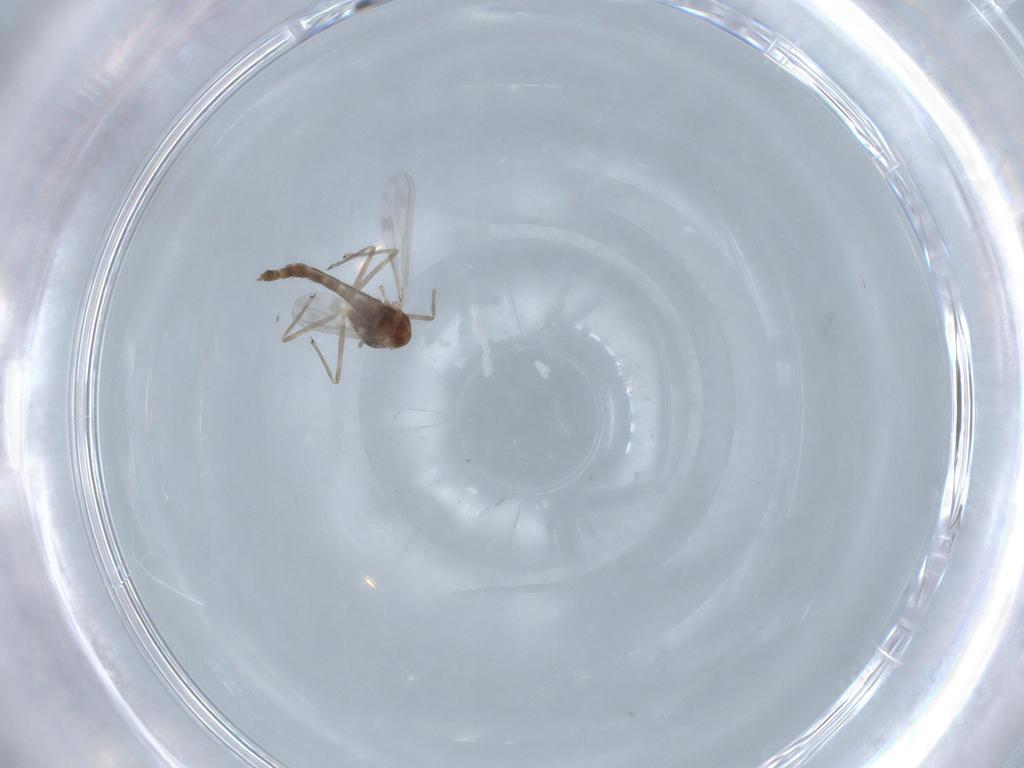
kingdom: Animalia
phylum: Arthropoda
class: Insecta
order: Diptera
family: Chironomidae
